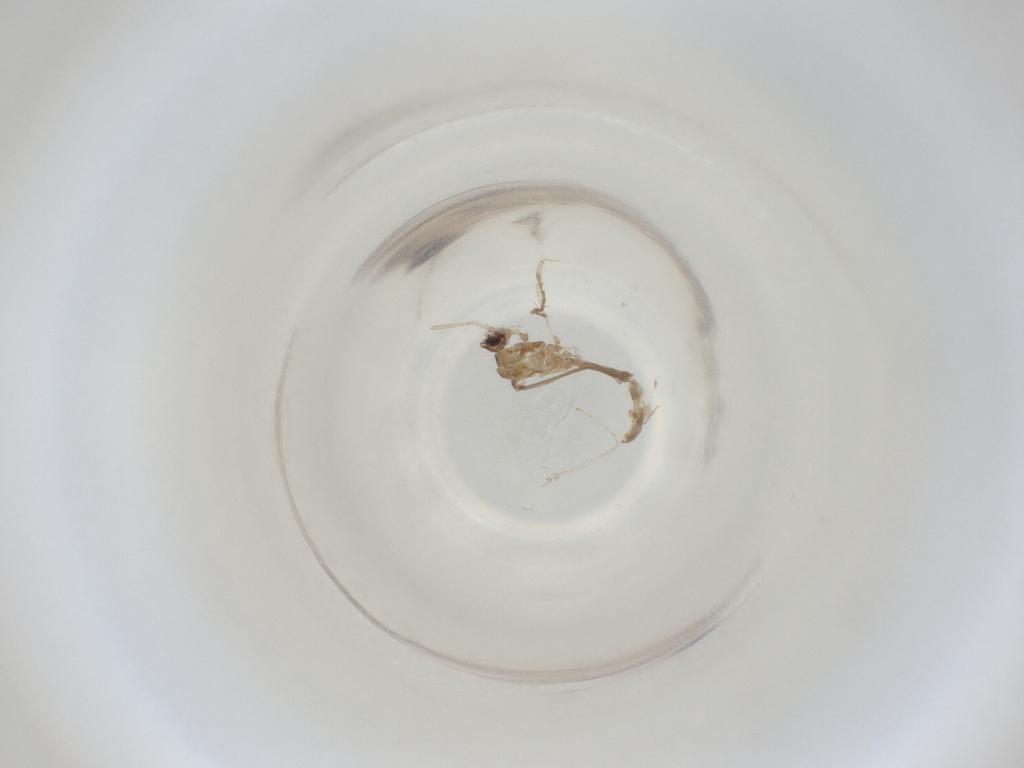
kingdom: Animalia
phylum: Arthropoda
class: Insecta
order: Diptera
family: Cecidomyiidae
